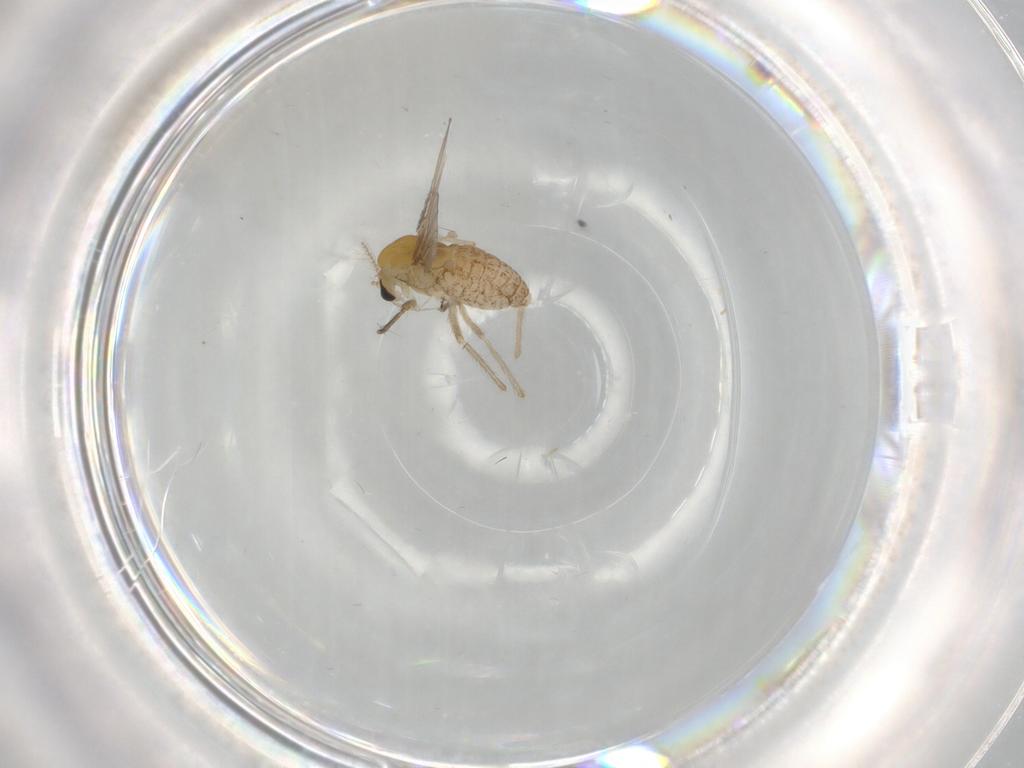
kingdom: Animalia
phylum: Arthropoda
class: Insecta
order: Diptera
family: Chironomidae
